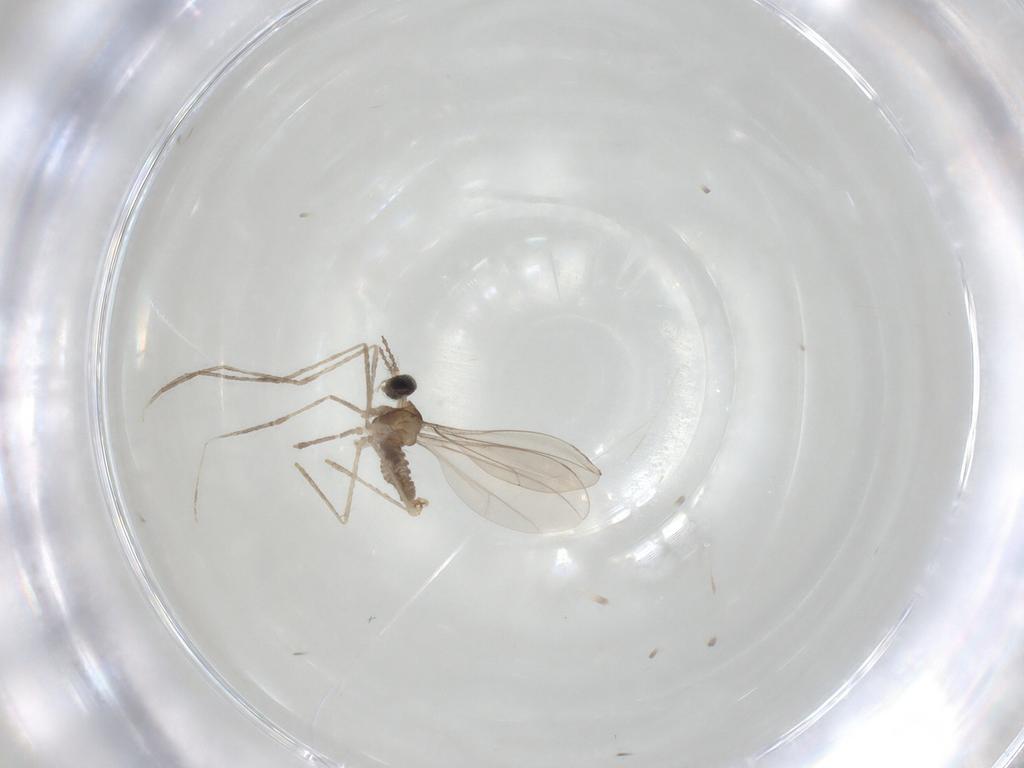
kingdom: Animalia
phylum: Arthropoda
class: Insecta
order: Diptera
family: Cecidomyiidae
